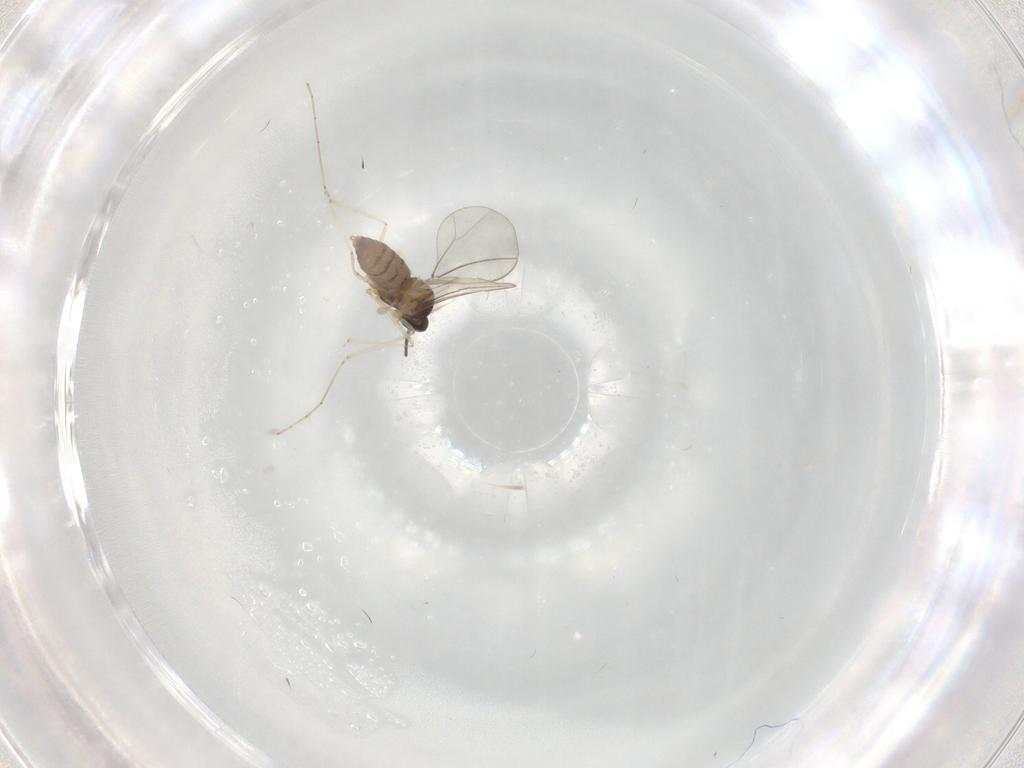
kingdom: Animalia
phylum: Arthropoda
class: Insecta
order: Diptera
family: Cecidomyiidae
